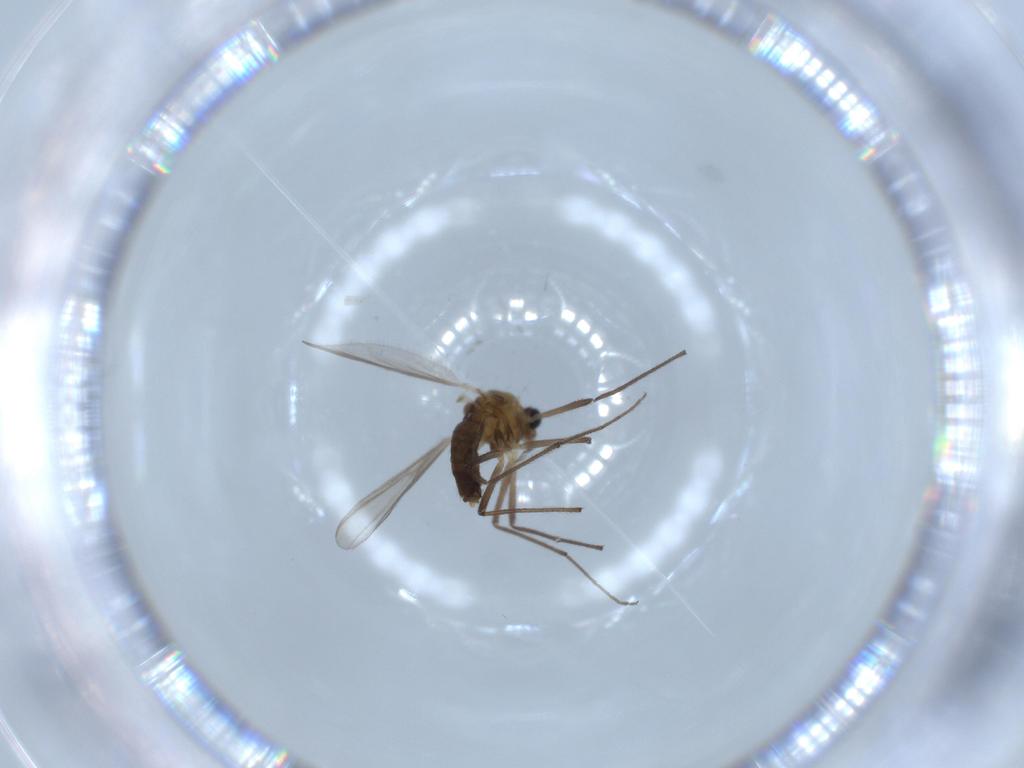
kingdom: Animalia
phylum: Arthropoda
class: Insecta
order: Diptera
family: Chironomidae
